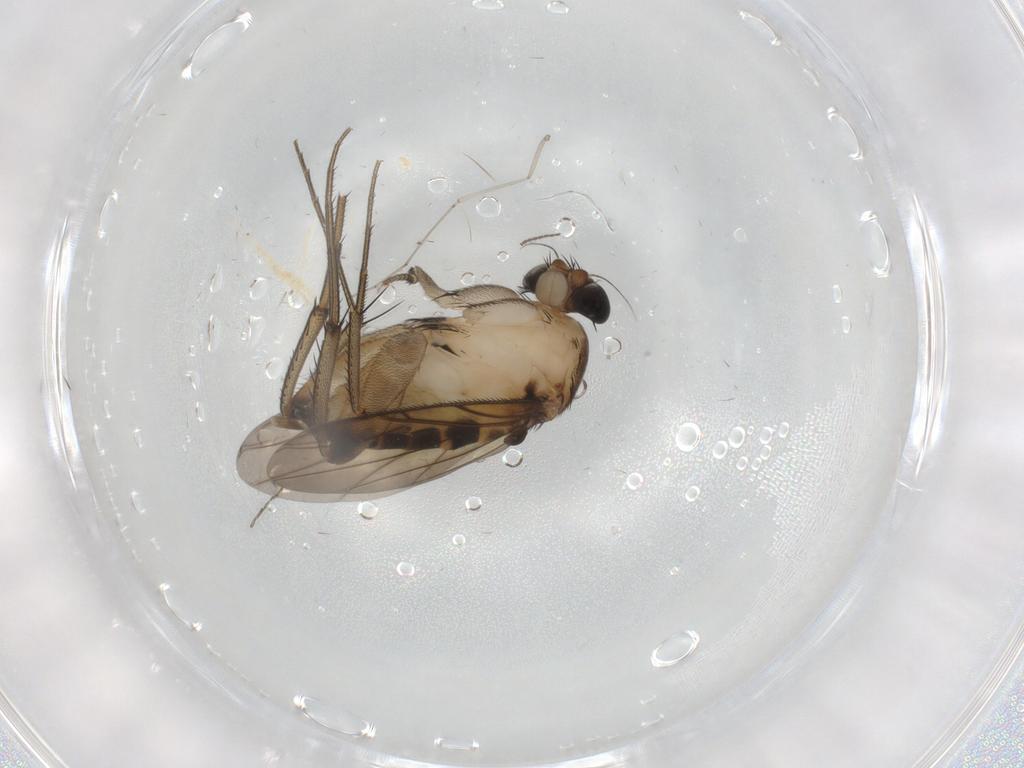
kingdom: Animalia
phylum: Arthropoda
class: Insecta
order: Diptera
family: Phoridae
